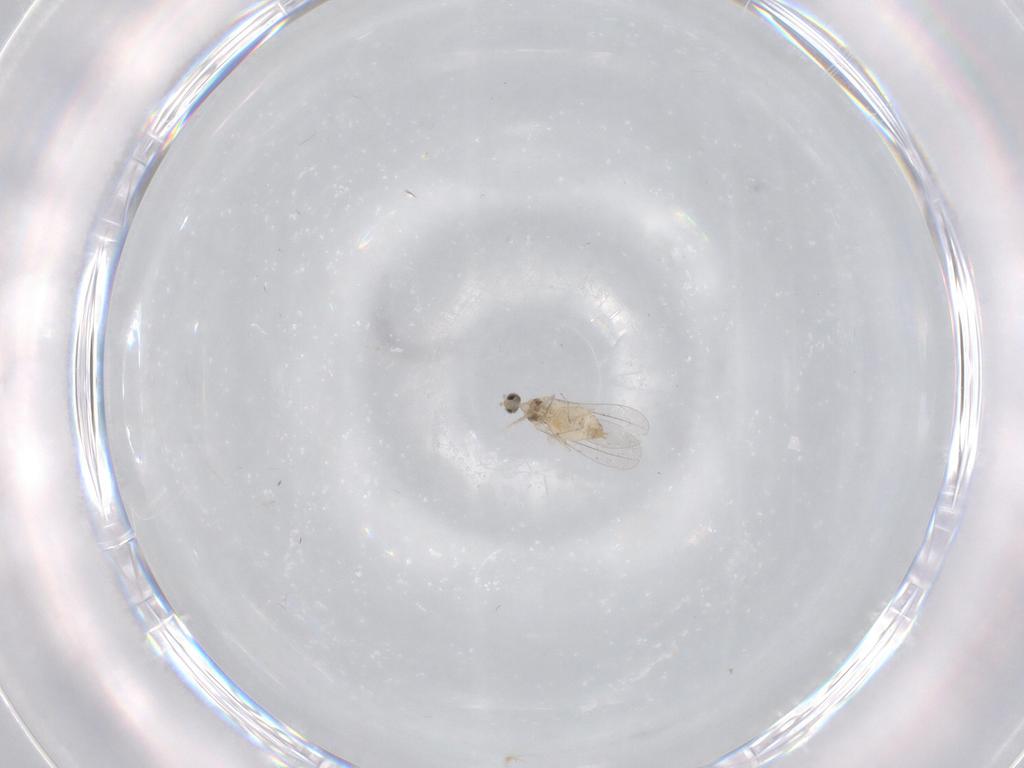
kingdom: Animalia
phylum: Arthropoda
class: Insecta
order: Diptera
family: Cecidomyiidae
